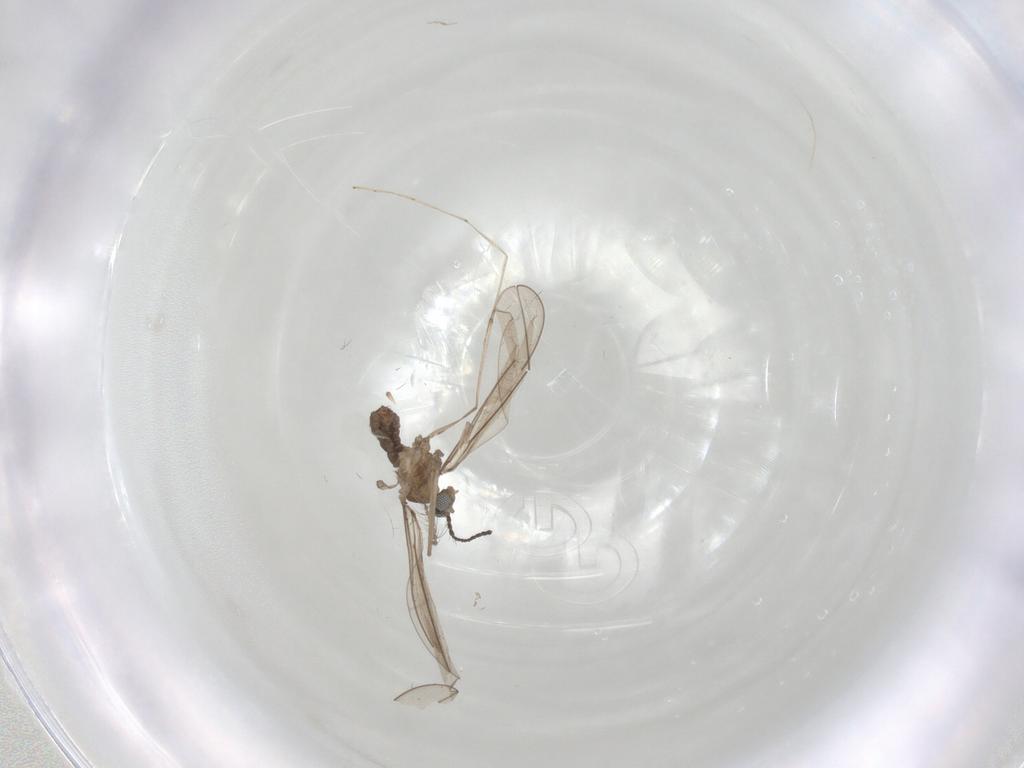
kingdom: Animalia
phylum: Arthropoda
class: Insecta
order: Diptera
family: Cecidomyiidae
